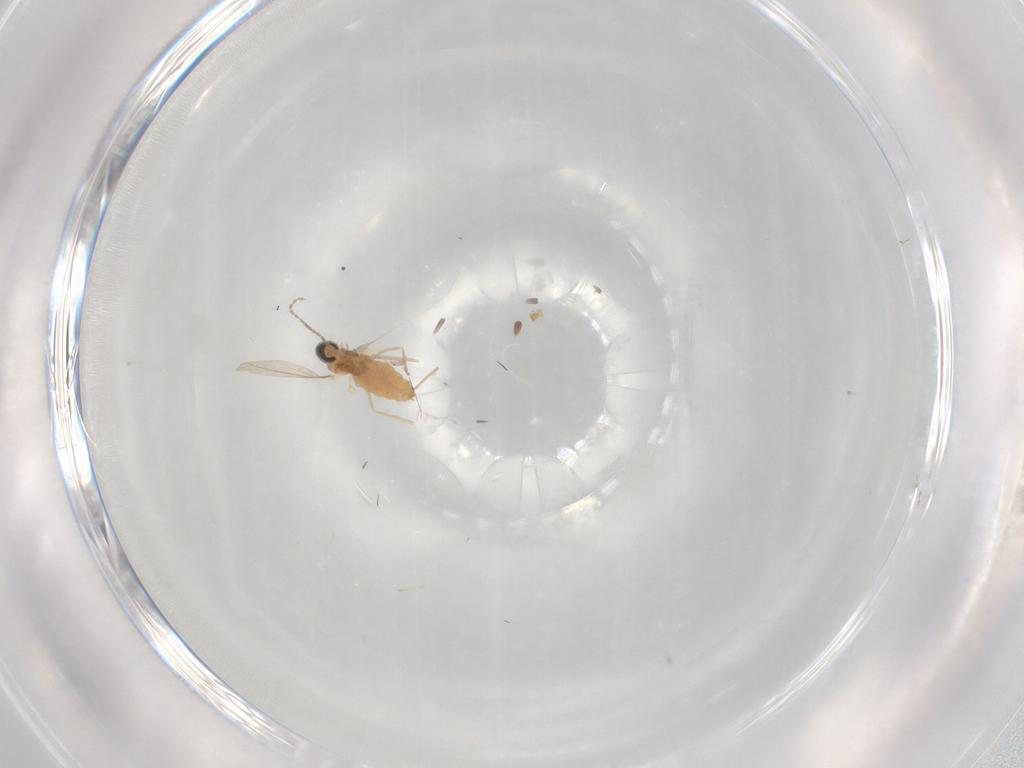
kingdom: Animalia
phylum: Arthropoda
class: Insecta
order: Diptera
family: Cecidomyiidae
